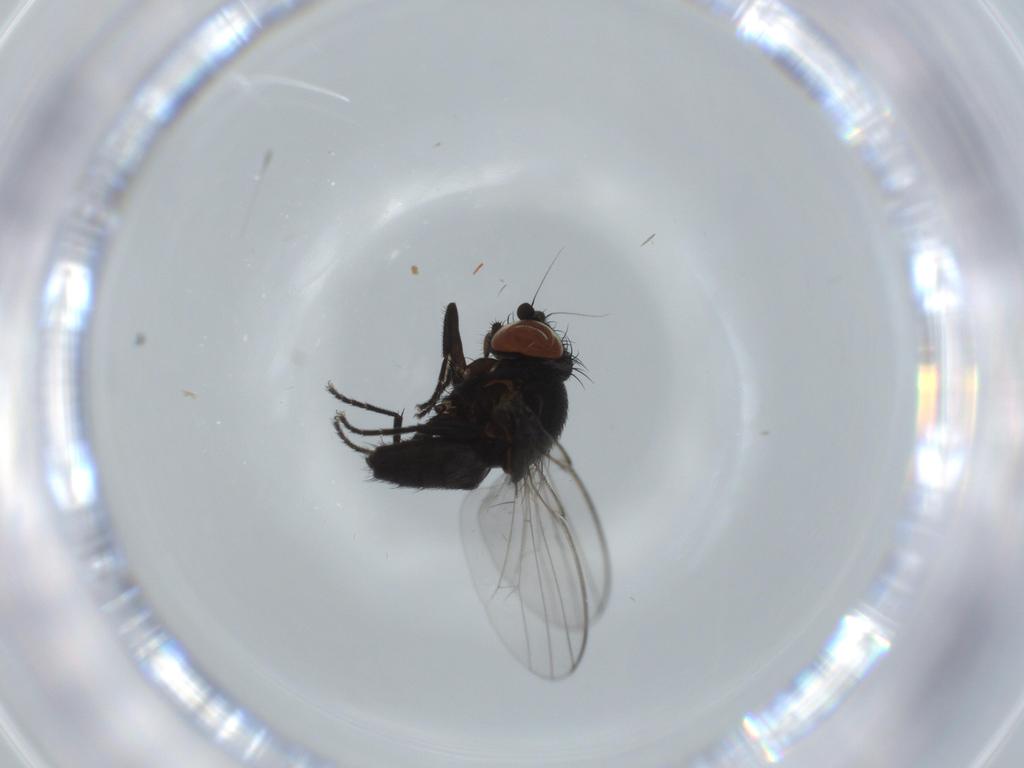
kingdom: Animalia
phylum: Arthropoda
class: Insecta
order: Diptera
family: Milichiidae
